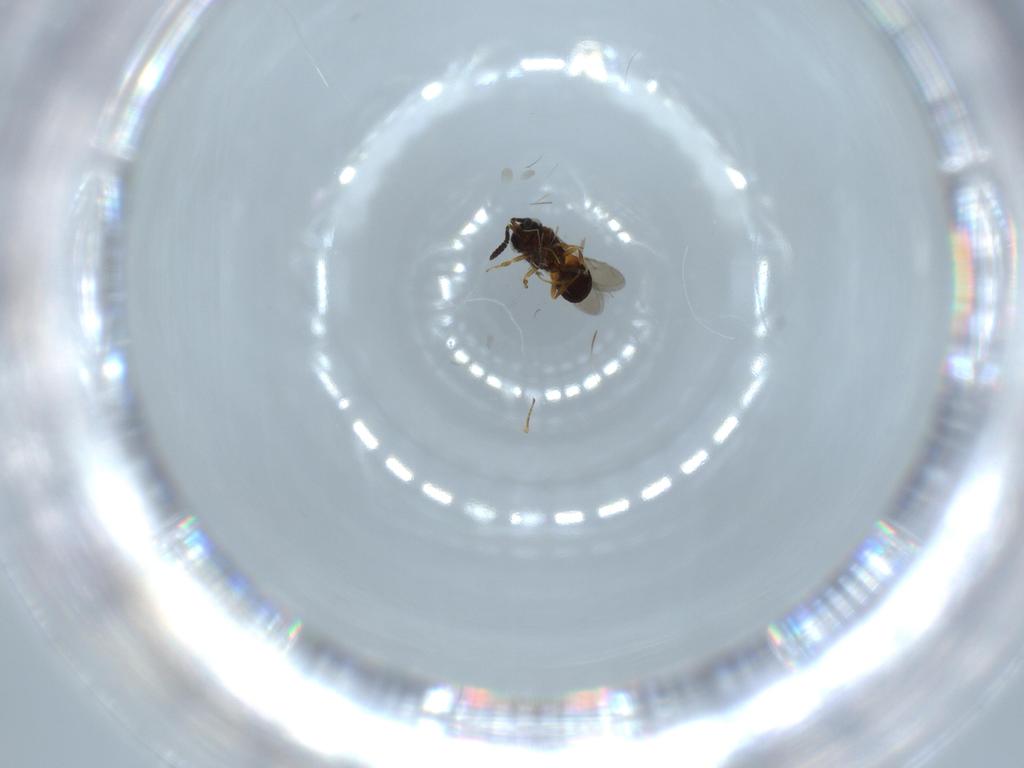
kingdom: Animalia
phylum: Arthropoda
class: Insecta
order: Hymenoptera
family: Scelionidae
